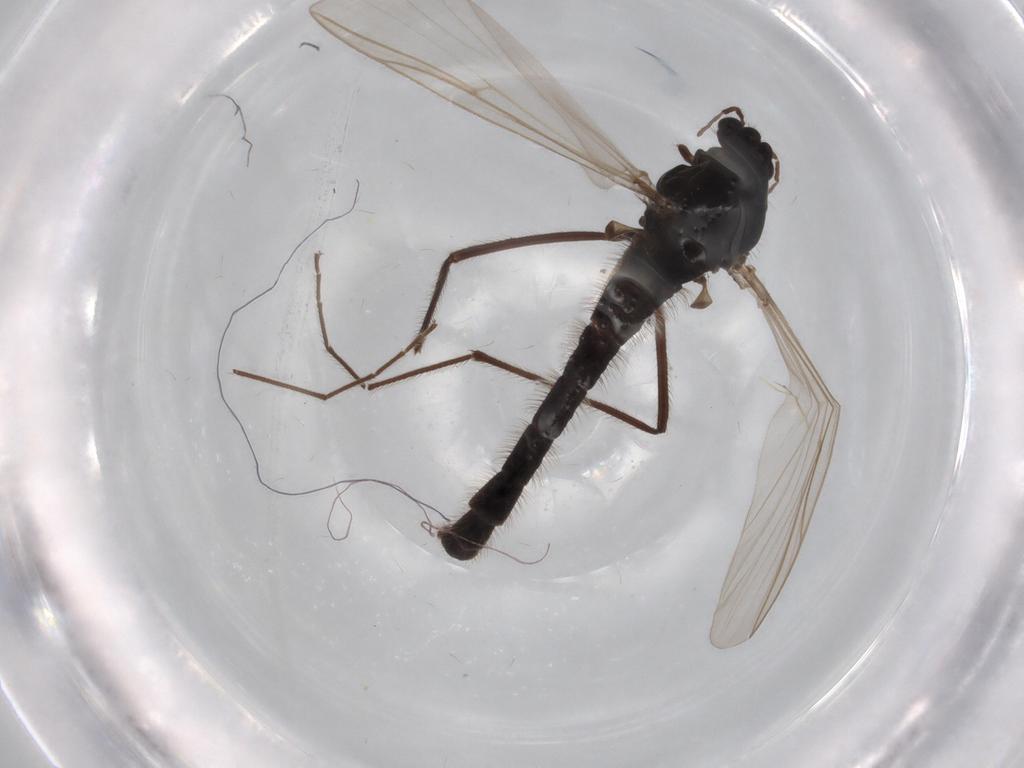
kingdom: Animalia
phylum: Arthropoda
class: Insecta
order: Diptera
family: Phoridae
